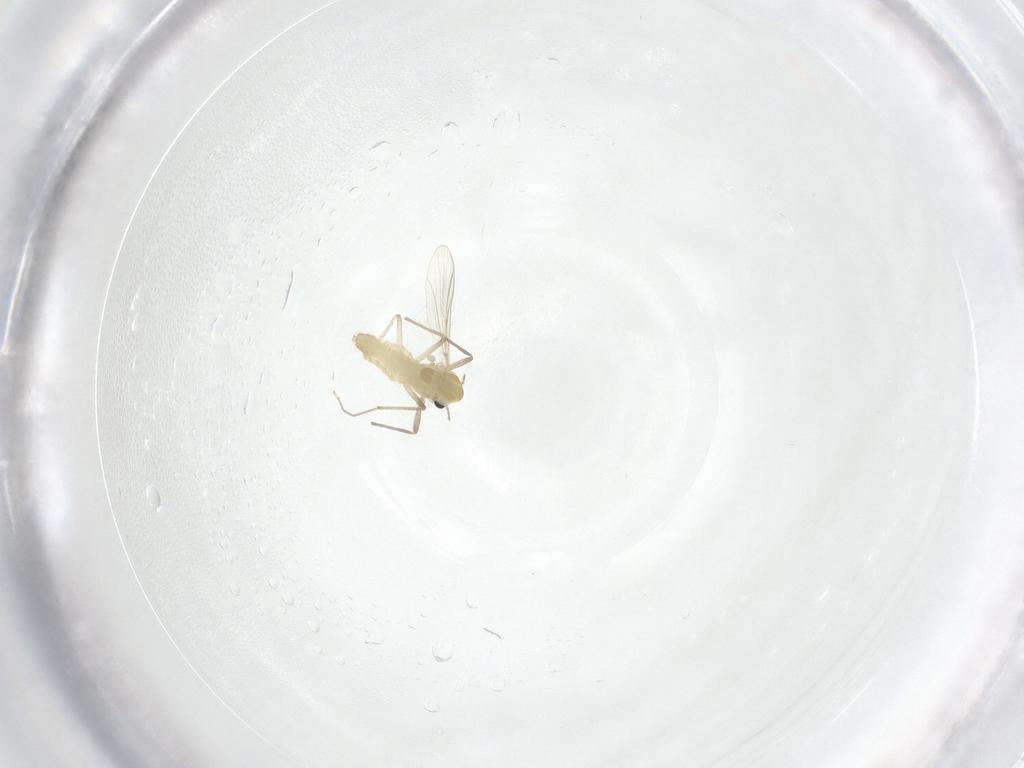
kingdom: Animalia
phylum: Arthropoda
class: Insecta
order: Diptera
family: Chironomidae
